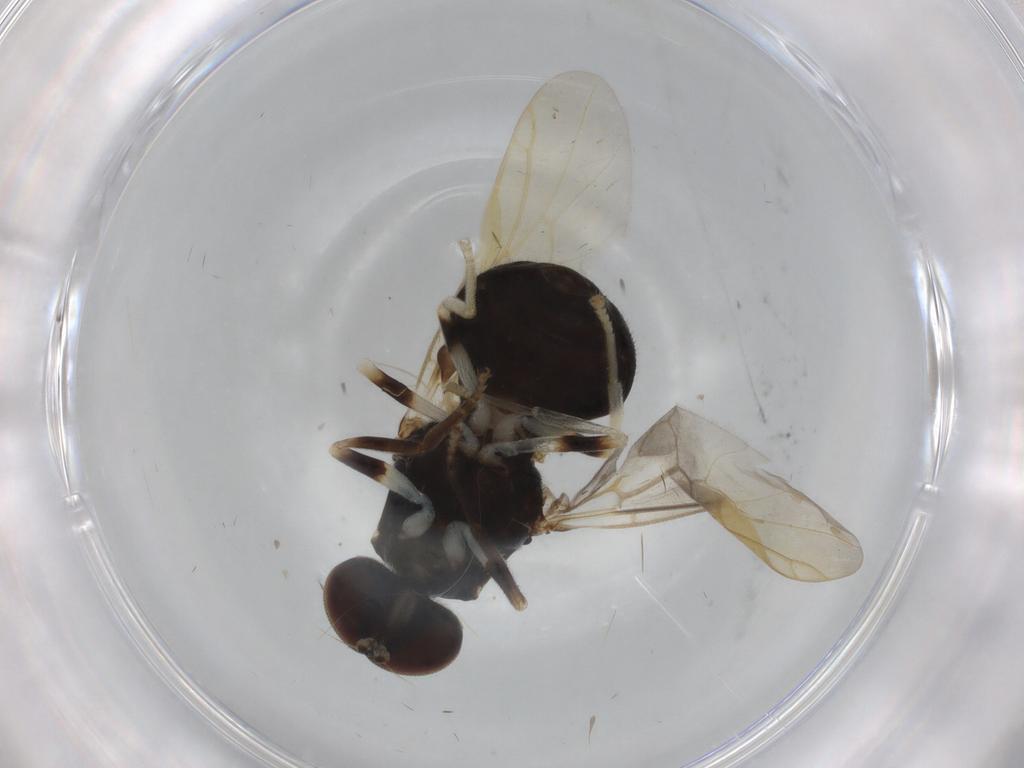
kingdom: Animalia
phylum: Arthropoda
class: Insecta
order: Diptera
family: Stratiomyidae
